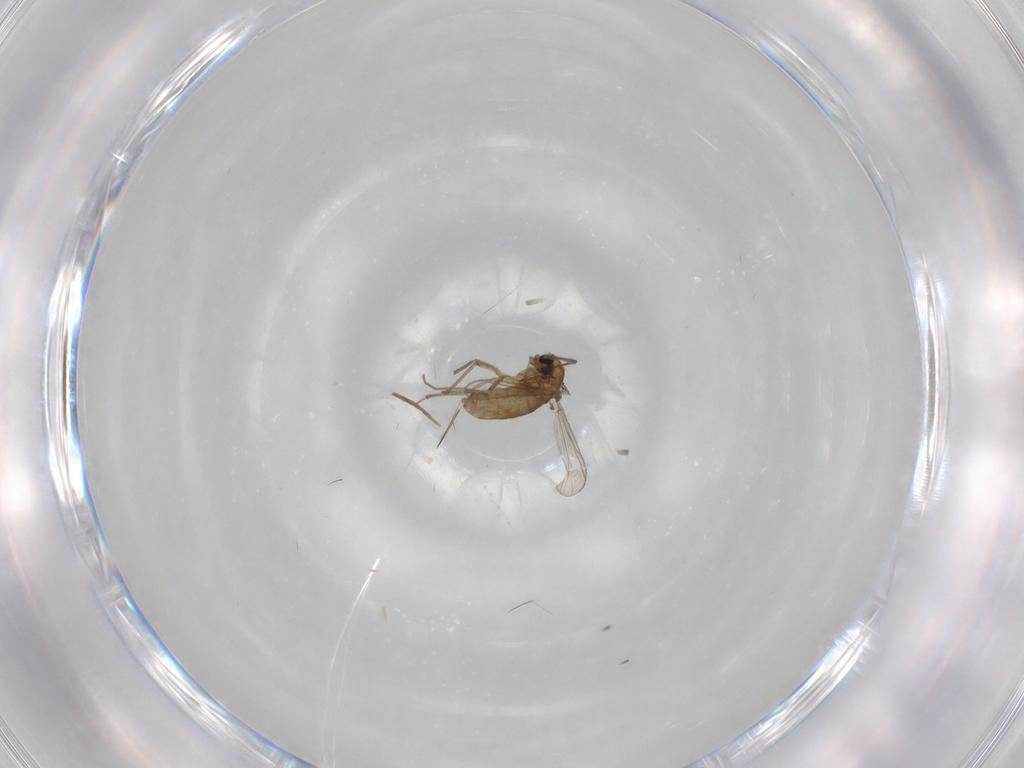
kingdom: Animalia
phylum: Arthropoda
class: Insecta
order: Diptera
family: Chironomidae
